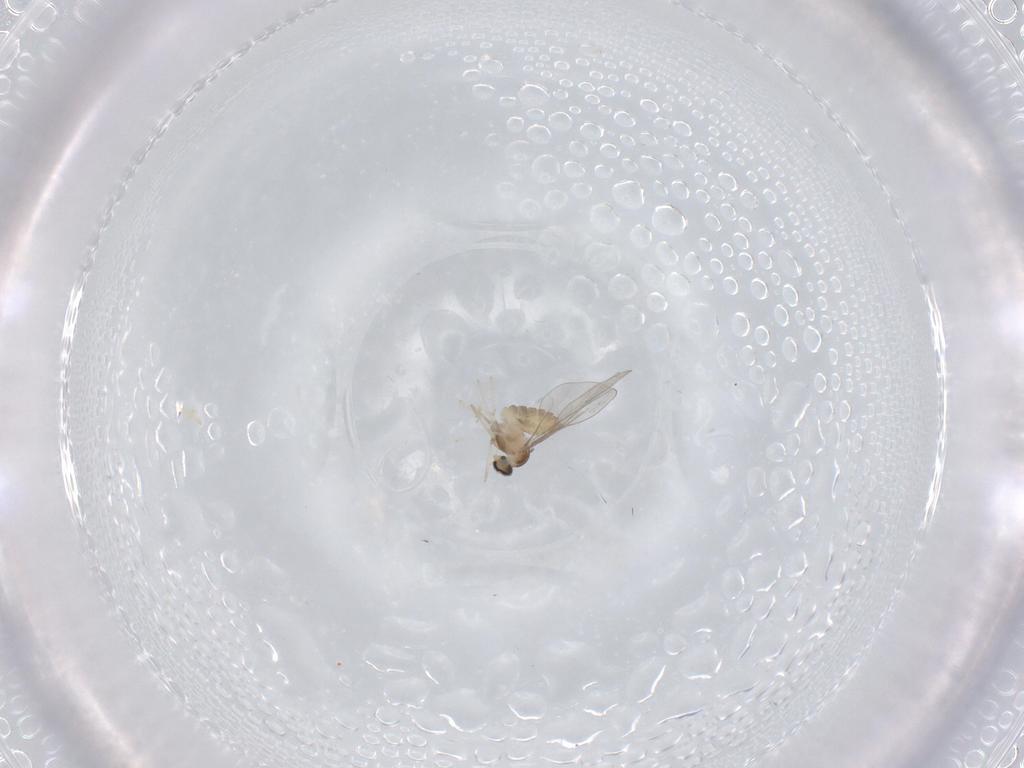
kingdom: Animalia
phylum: Arthropoda
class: Insecta
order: Diptera
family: Cecidomyiidae
